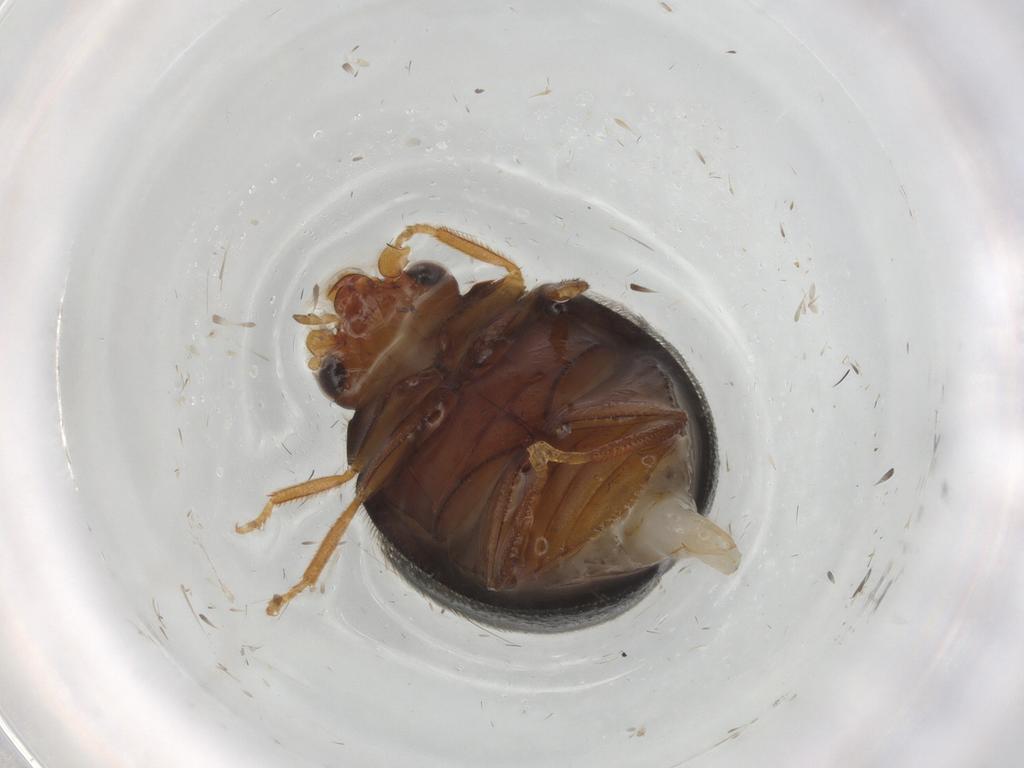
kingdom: Animalia
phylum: Arthropoda
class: Insecta
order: Coleoptera
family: Scirtidae
